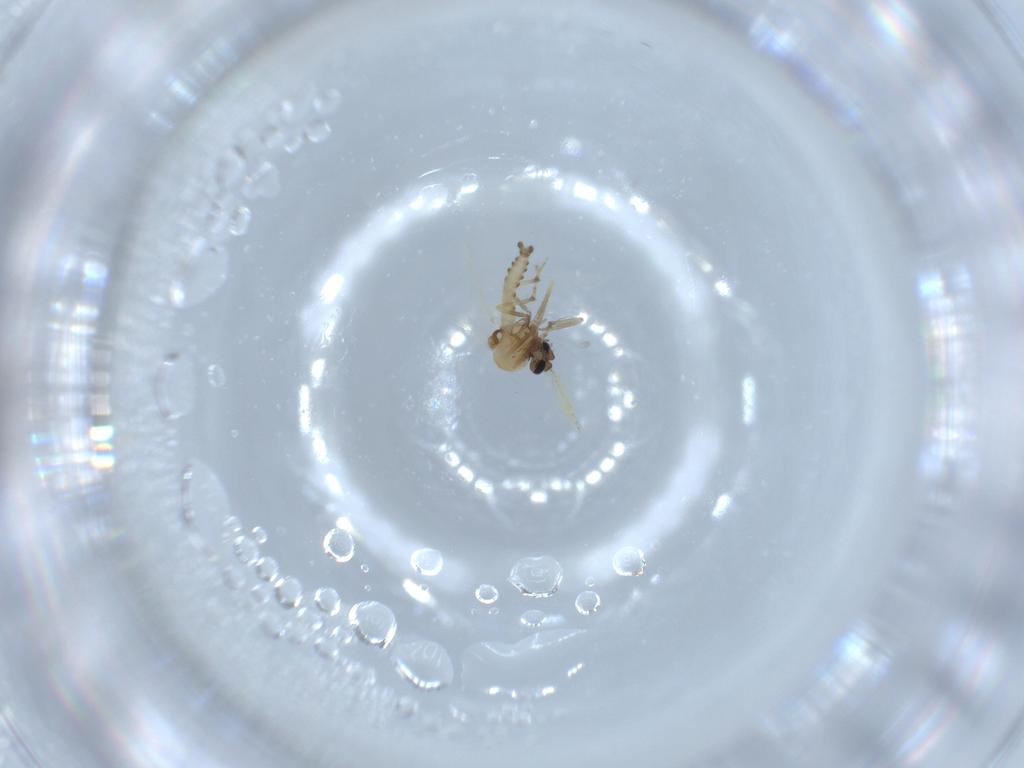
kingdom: Animalia
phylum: Arthropoda
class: Insecta
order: Diptera
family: Ceratopogonidae
